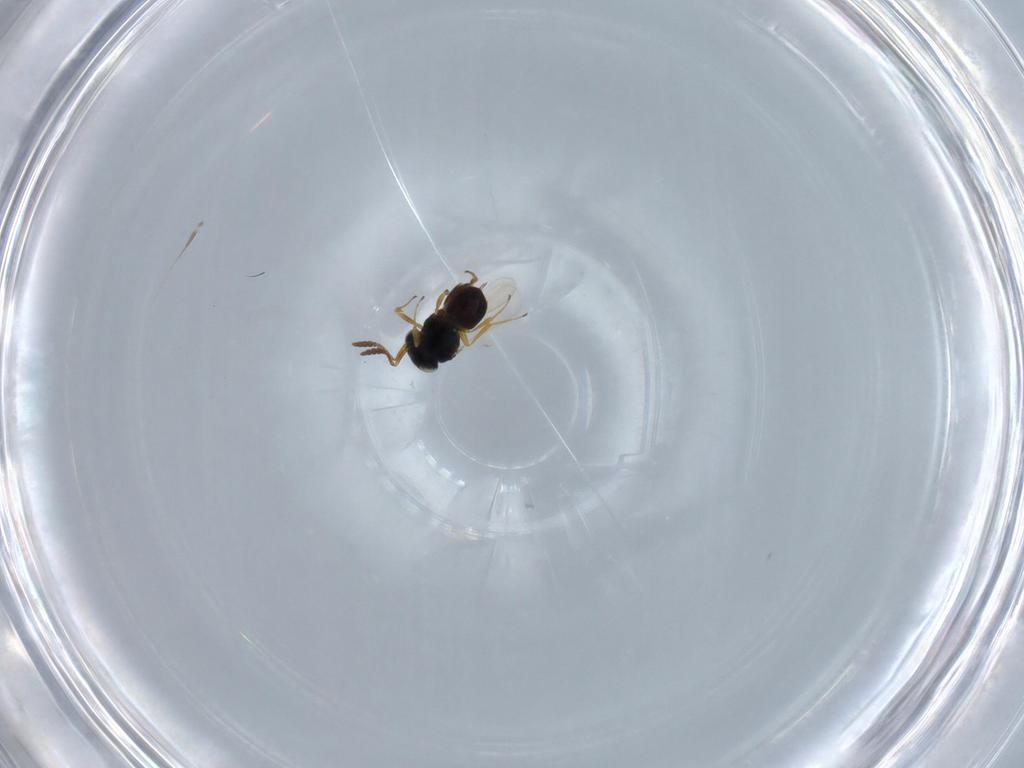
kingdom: Animalia
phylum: Arthropoda
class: Insecta
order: Hymenoptera
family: Scelionidae
